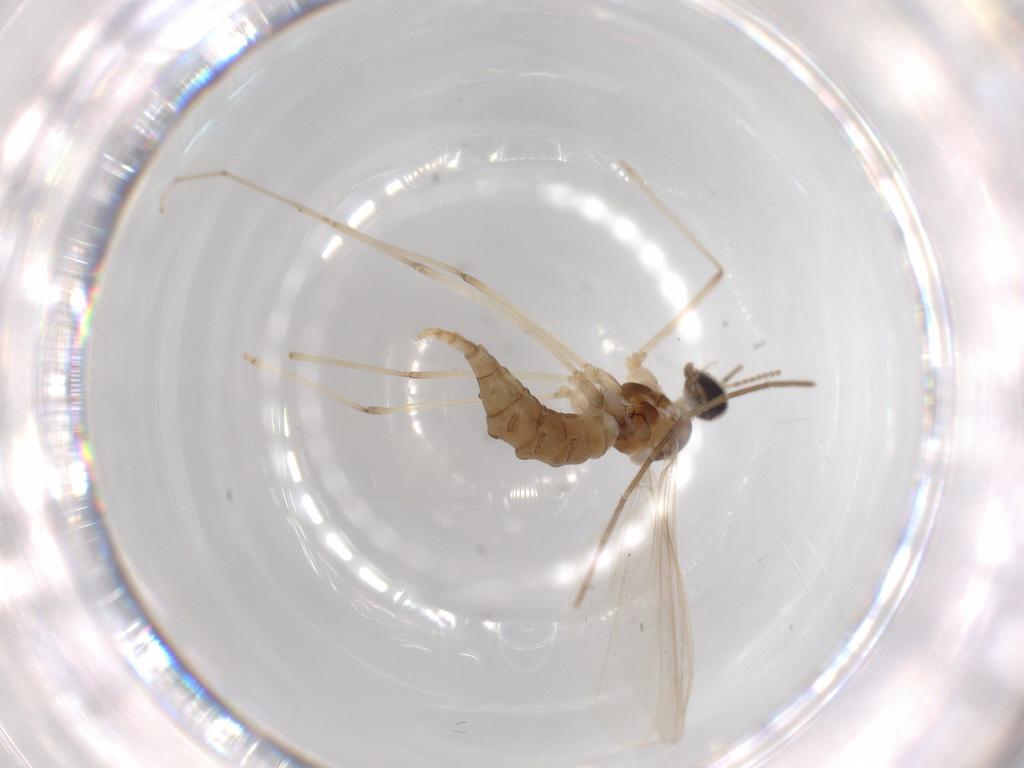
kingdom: Animalia
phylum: Arthropoda
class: Insecta
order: Diptera
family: Cecidomyiidae
